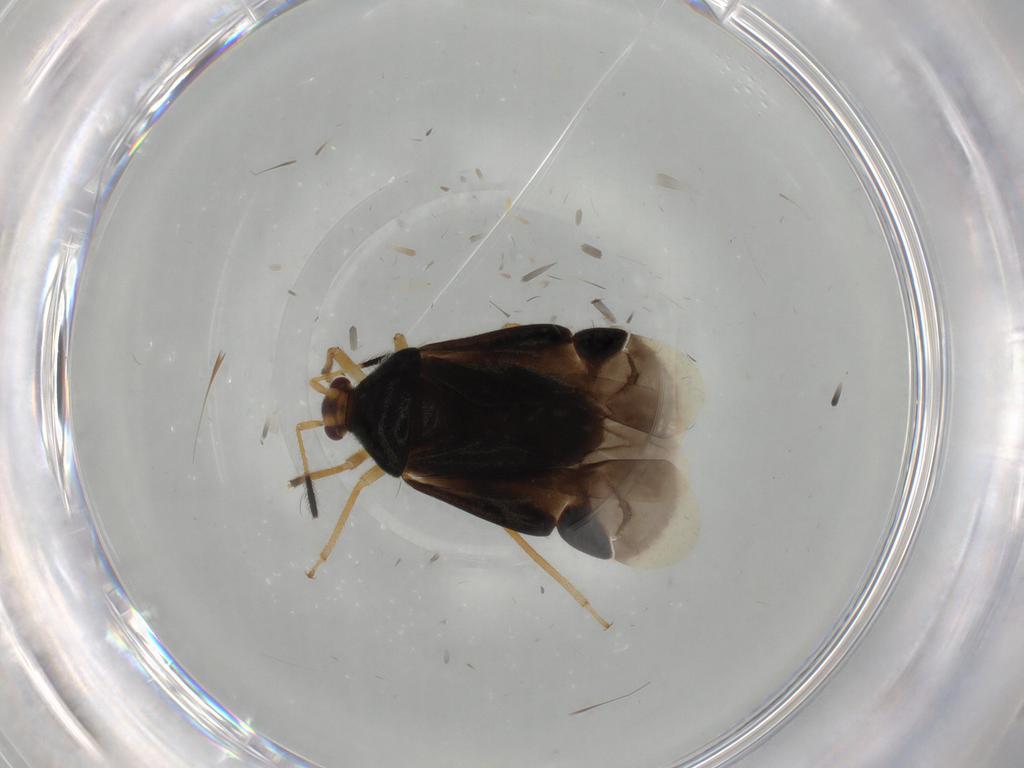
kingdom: Animalia
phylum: Arthropoda
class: Insecta
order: Hemiptera
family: Miridae
